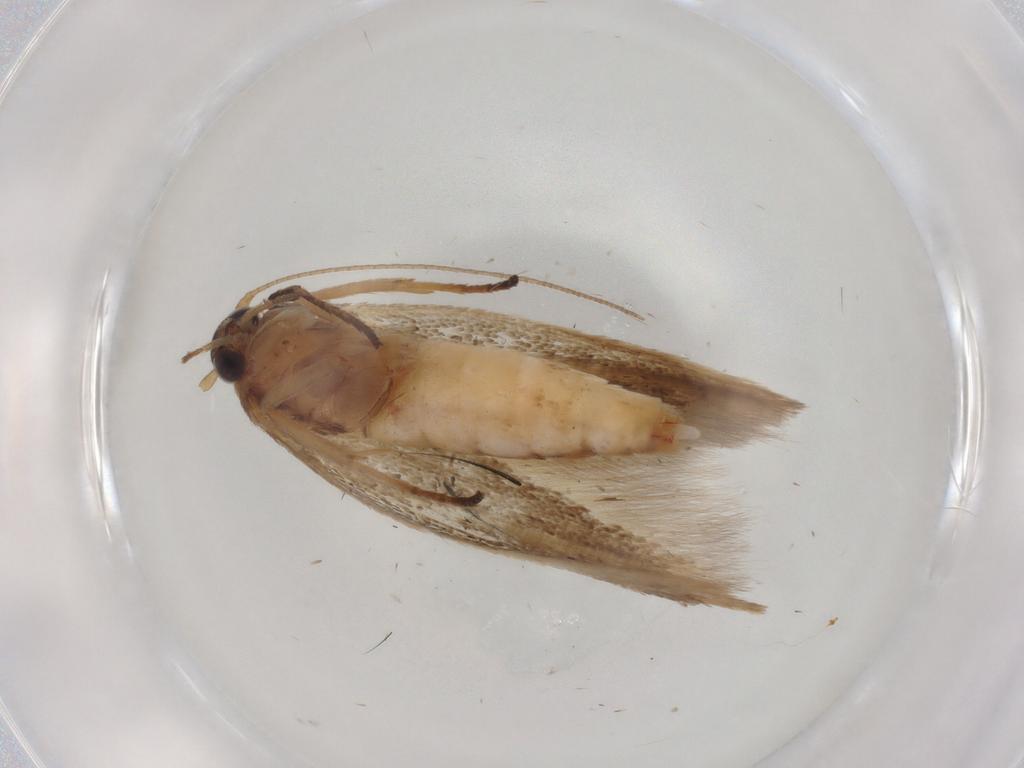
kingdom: Animalia
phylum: Arthropoda
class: Insecta
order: Lepidoptera
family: Scythrididae
